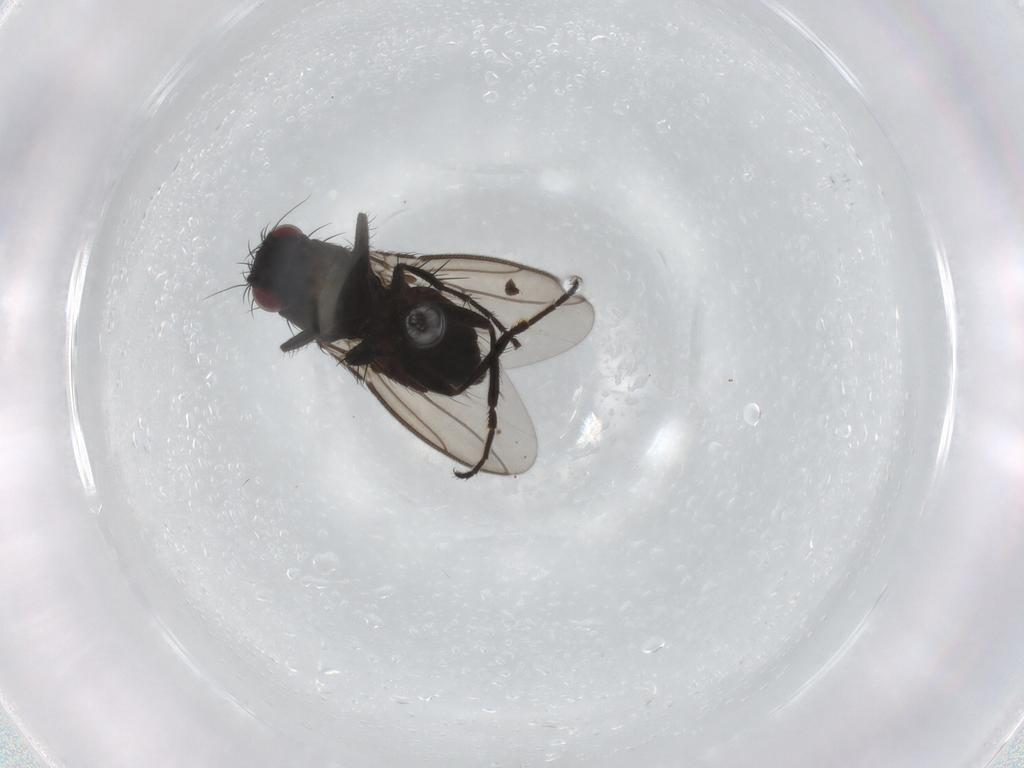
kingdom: Animalia
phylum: Arthropoda
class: Insecta
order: Diptera
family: Sphaeroceridae
